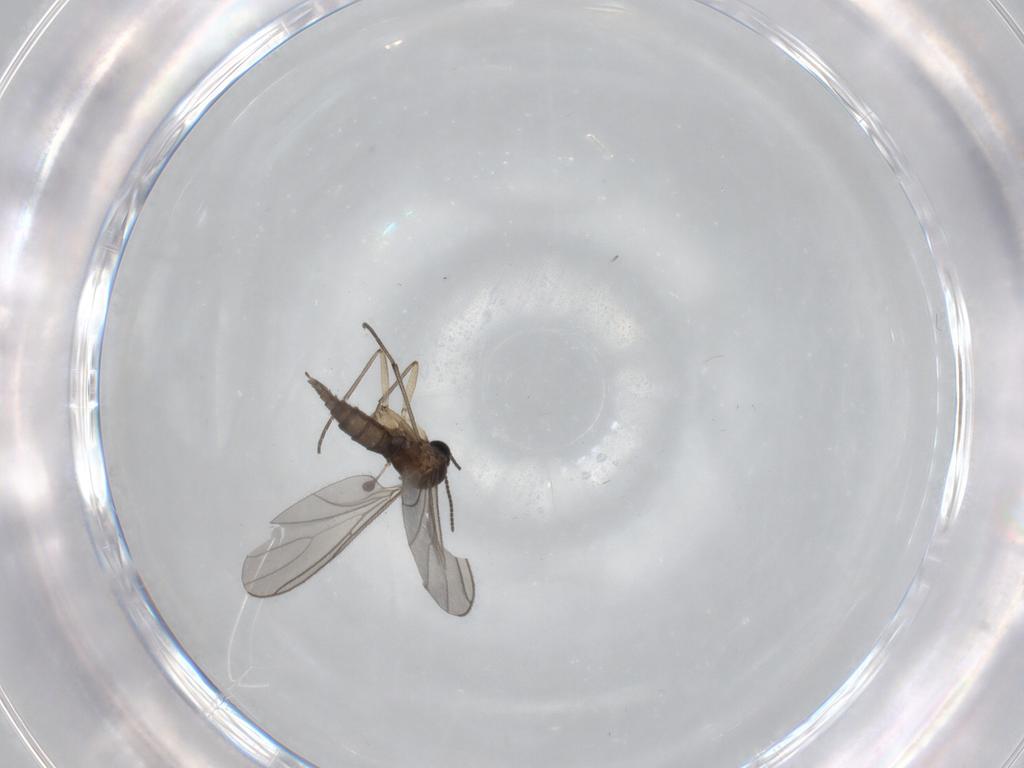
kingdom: Animalia
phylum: Arthropoda
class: Insecta
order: Diptera
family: Sciaridae
